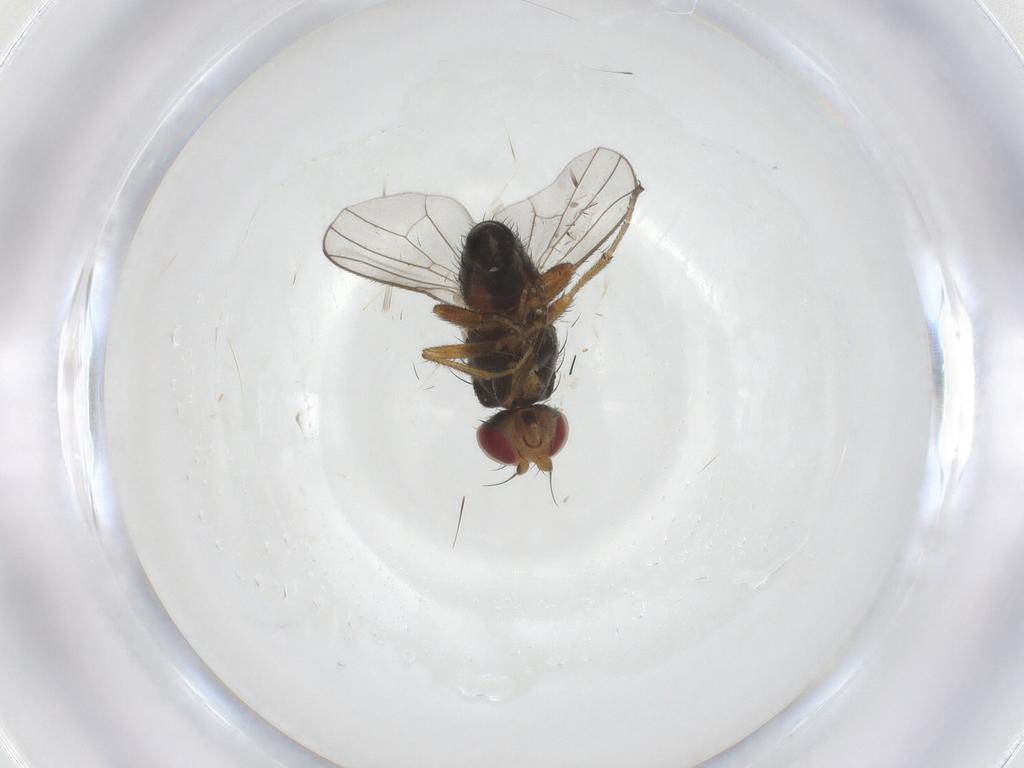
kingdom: Animalia
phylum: Arthropoda
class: Insecta
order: Diptera
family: Heleomyzidae
